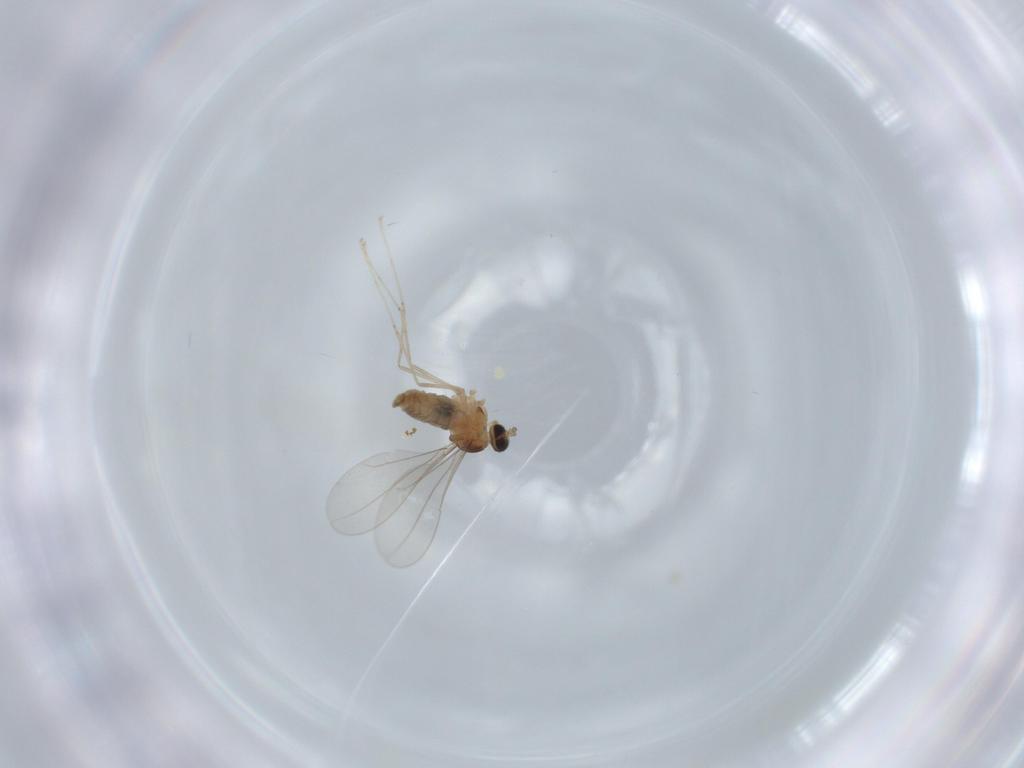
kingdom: Animalia
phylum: Arthropoda
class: Insecta
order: Diptera
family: Cecidomyiidae
